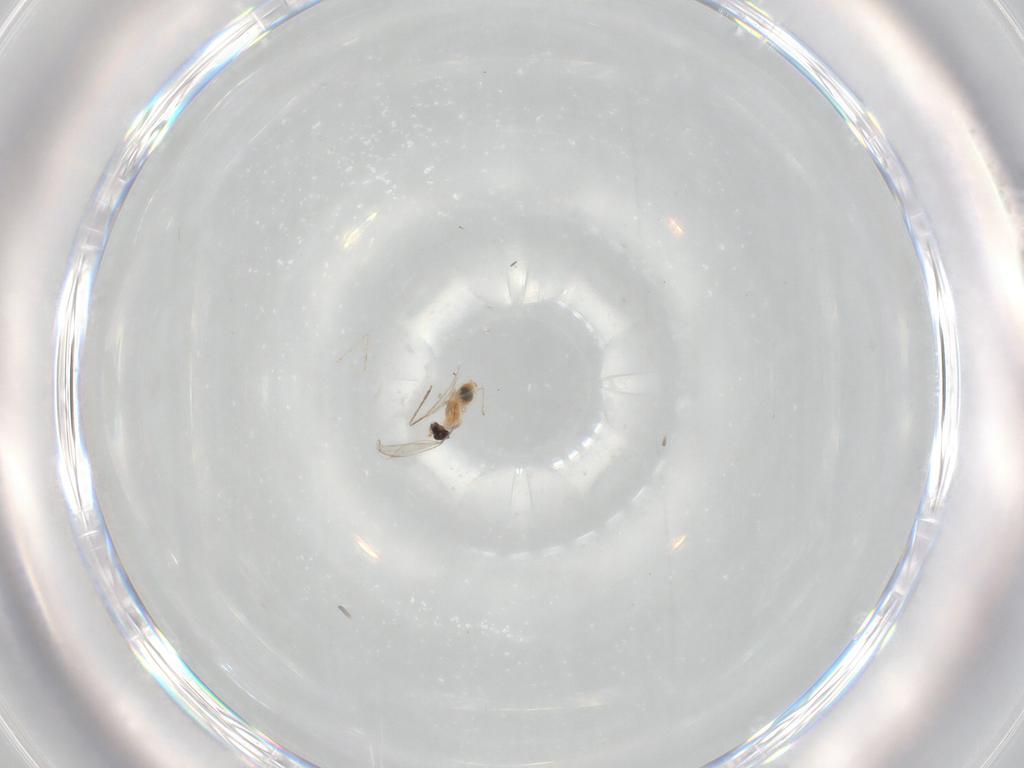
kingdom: Animalia
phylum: Arthropoda
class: Insecta
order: Diptera
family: Cecidomyiidae
